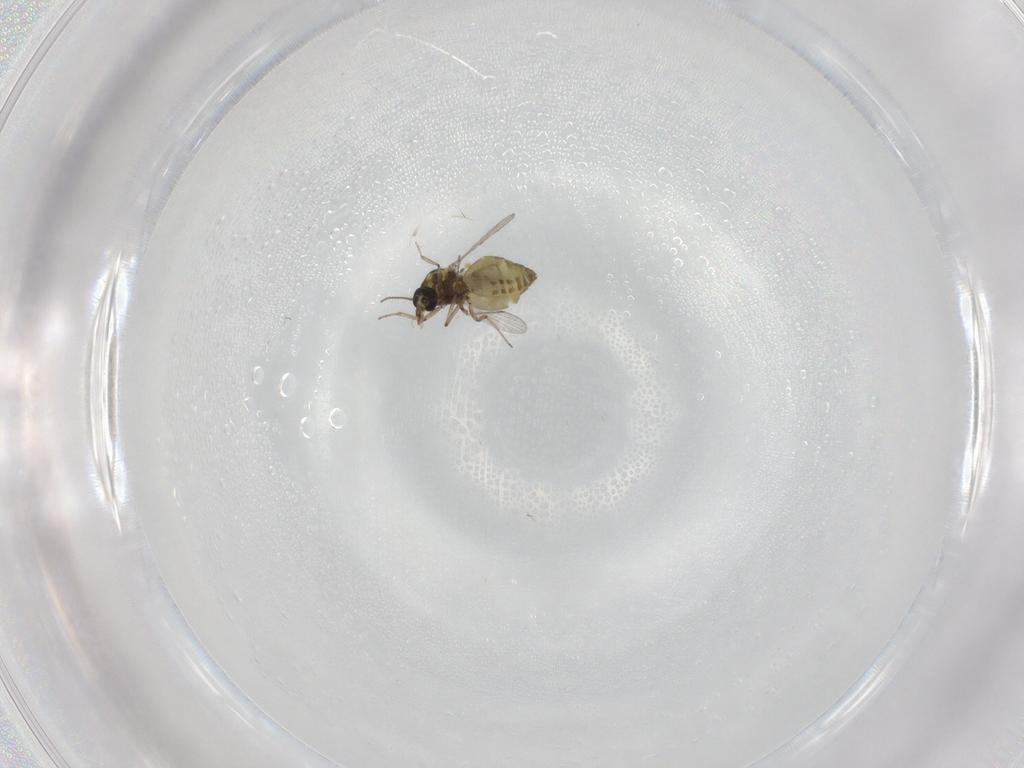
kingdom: Animalia
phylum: Arthropoda
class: Insecta
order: Diptera
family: Ceratopogonidae
